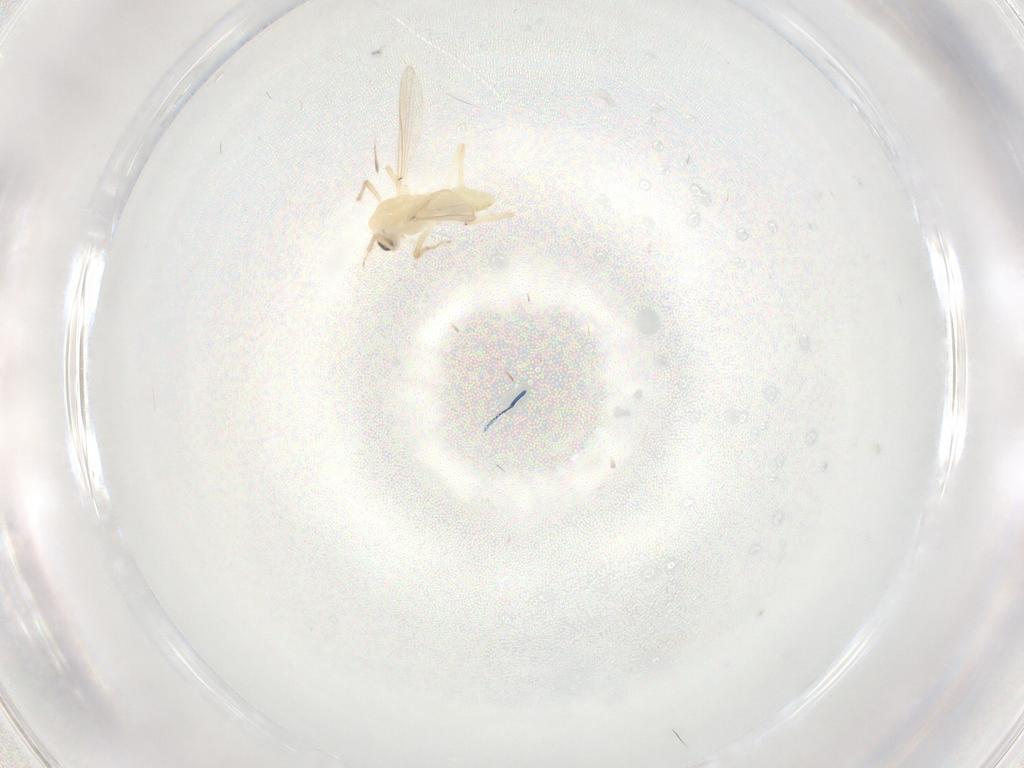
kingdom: Animalia
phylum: Arthropoda
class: Insecta
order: Diptera
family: Chironomidae
